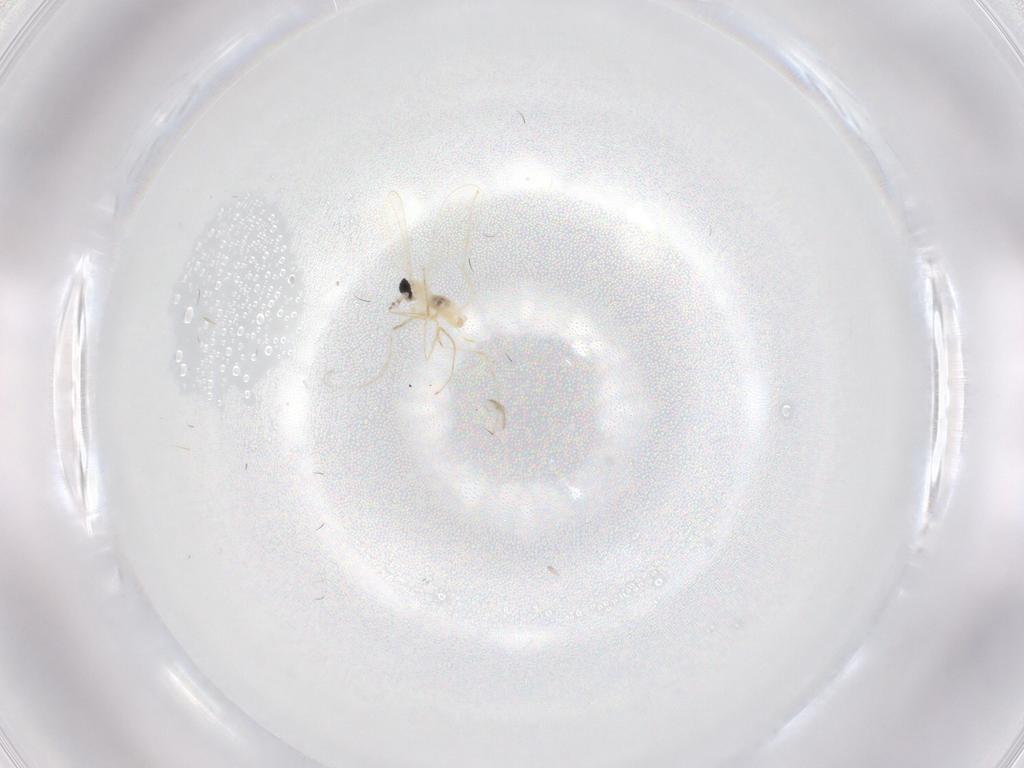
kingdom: Animalia
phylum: Arthropoda
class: Insecta
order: Diptera
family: Cecidomyiidae
